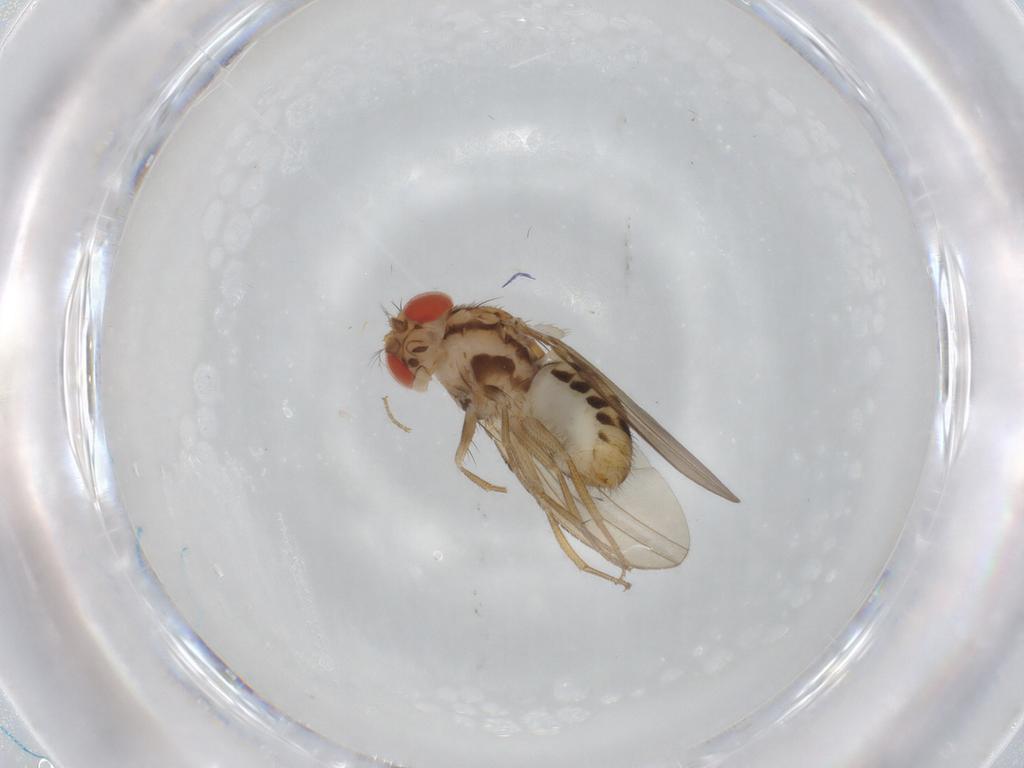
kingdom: Animalia
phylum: Arthropoda
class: Insecta
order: Diptera
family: Drosophilidae
